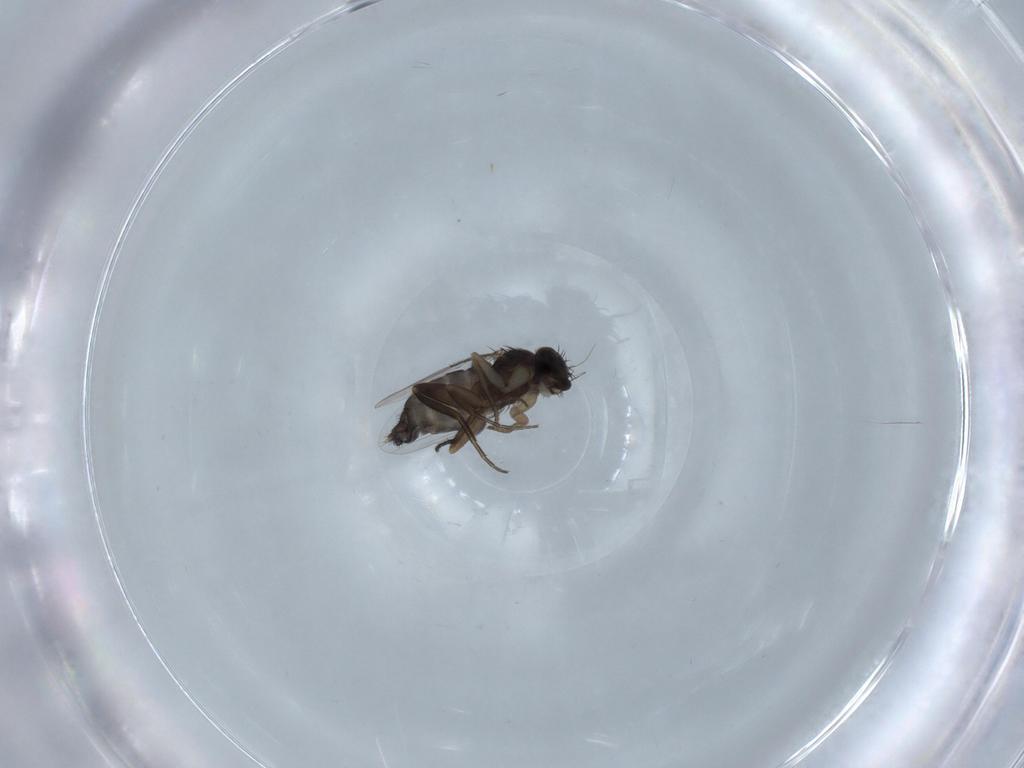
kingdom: Animalia
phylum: Arthropoda
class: Insecta
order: Diptera
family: Phoridae
